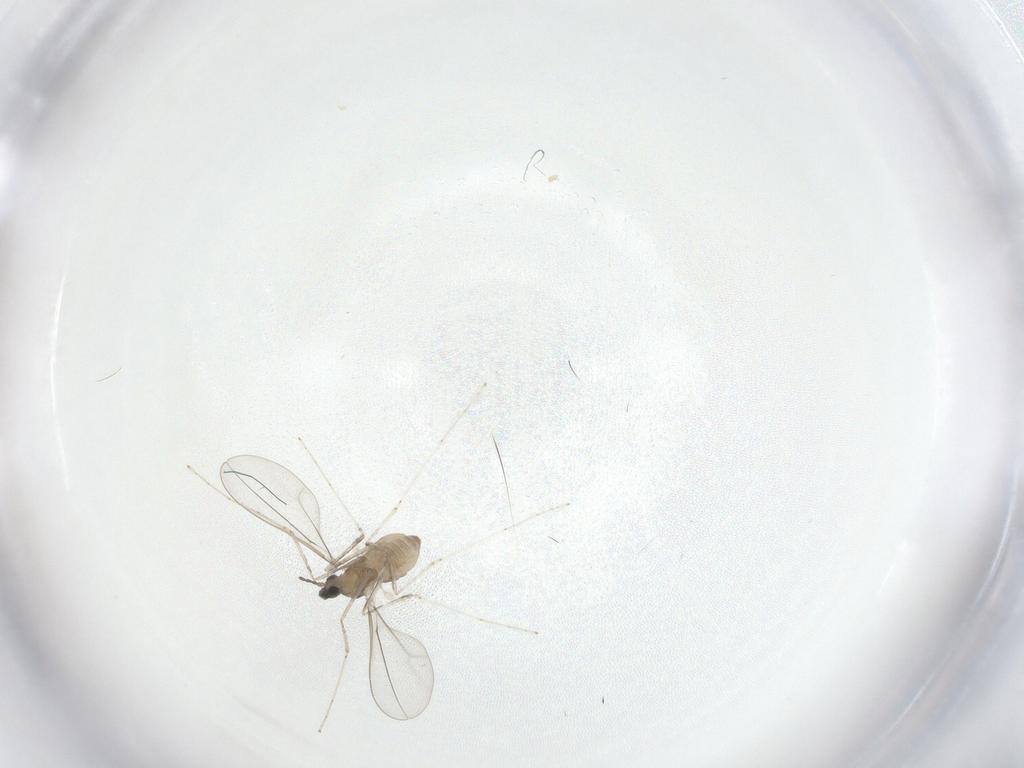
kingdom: Animalia
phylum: Arthropoda
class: Insecta
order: Diptera
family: Cecidomyiidae
